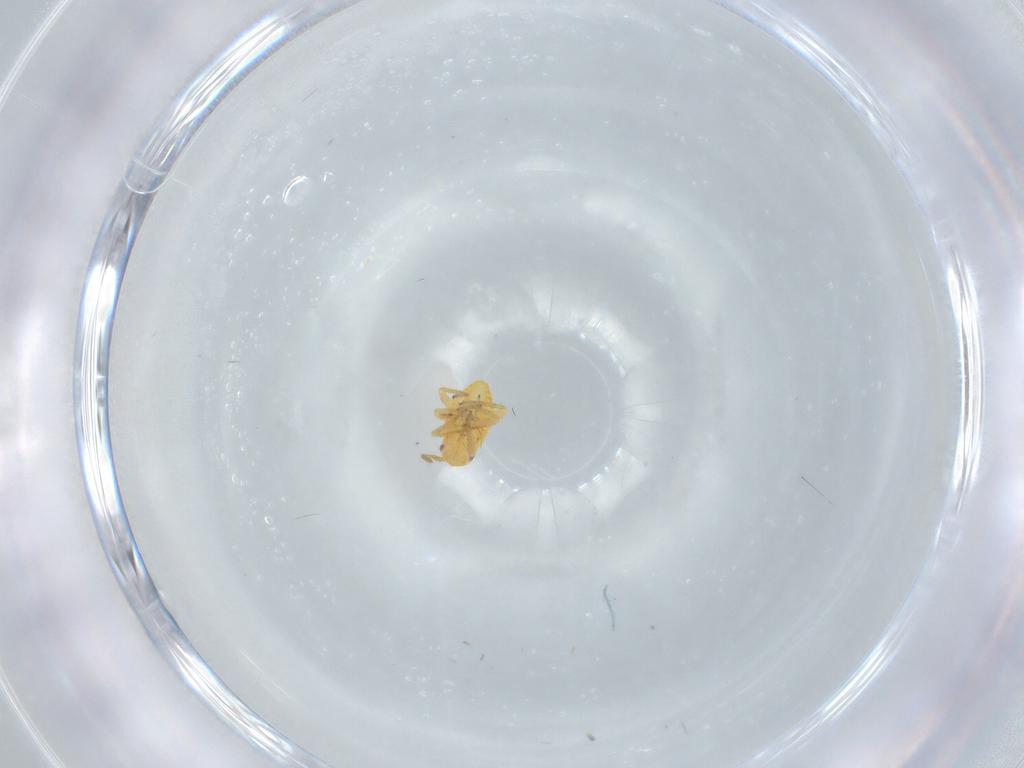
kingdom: Animalia
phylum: Arthropoda
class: Insecta
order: Hemiptera
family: Miridae
